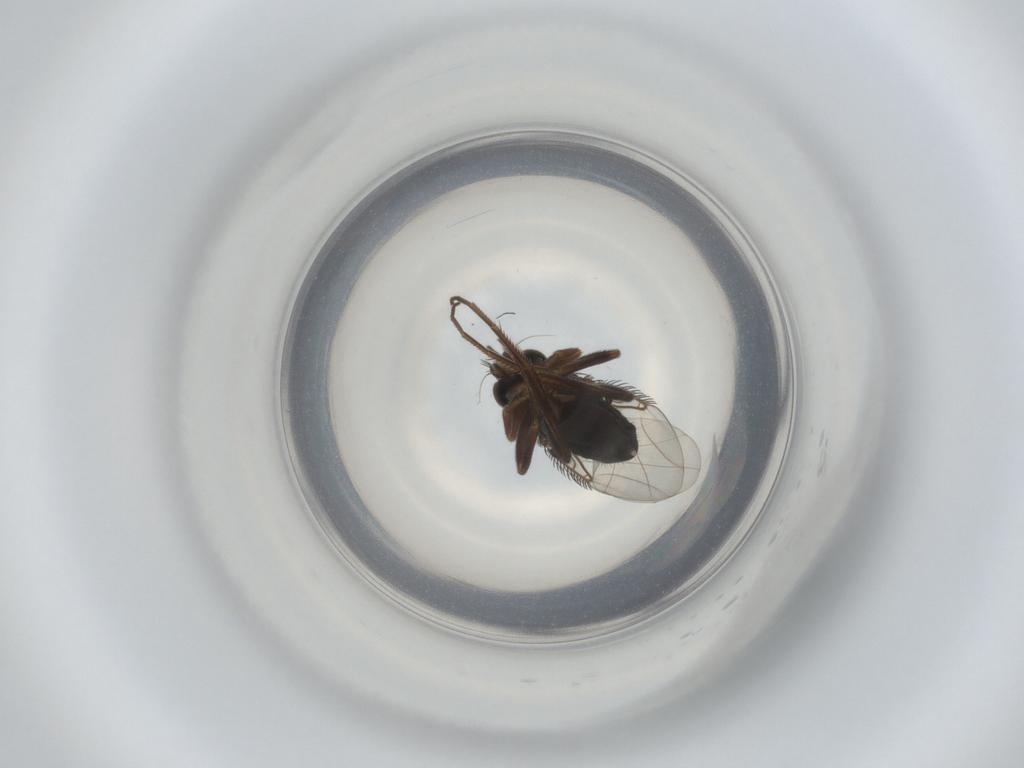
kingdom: Animalia
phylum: Arthropoda
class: Insecta
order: Diptera
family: Phoridae
